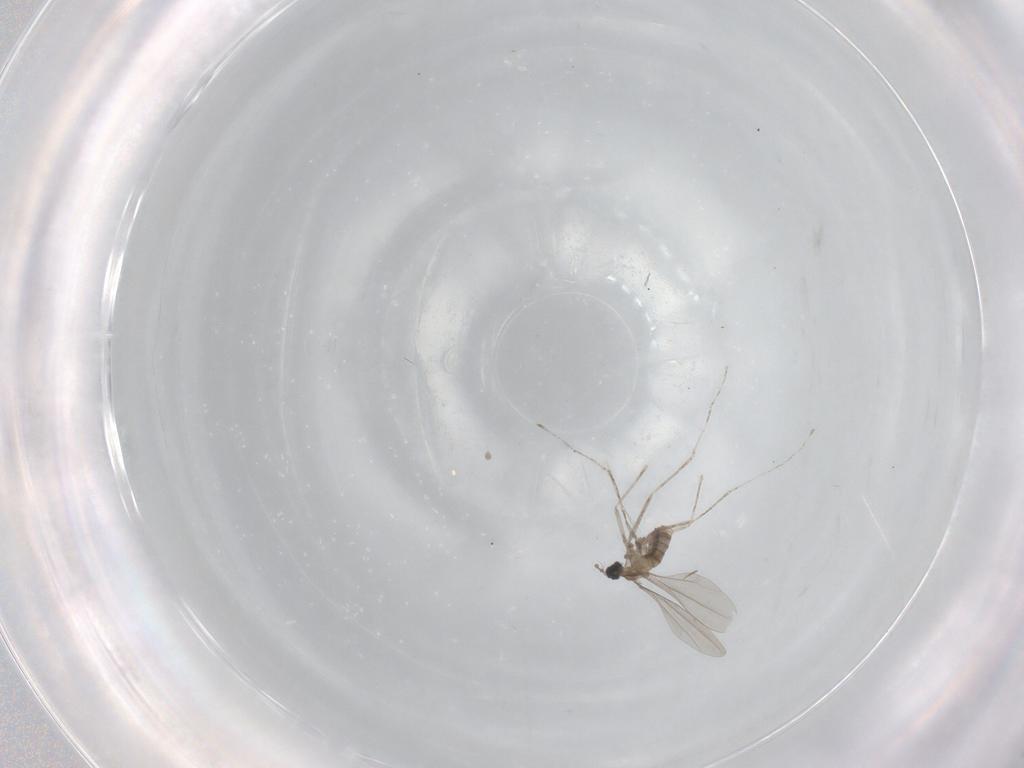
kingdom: Animalia
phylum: Arthropoda
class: Insecta
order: Diptera
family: Cecidomyiidae
